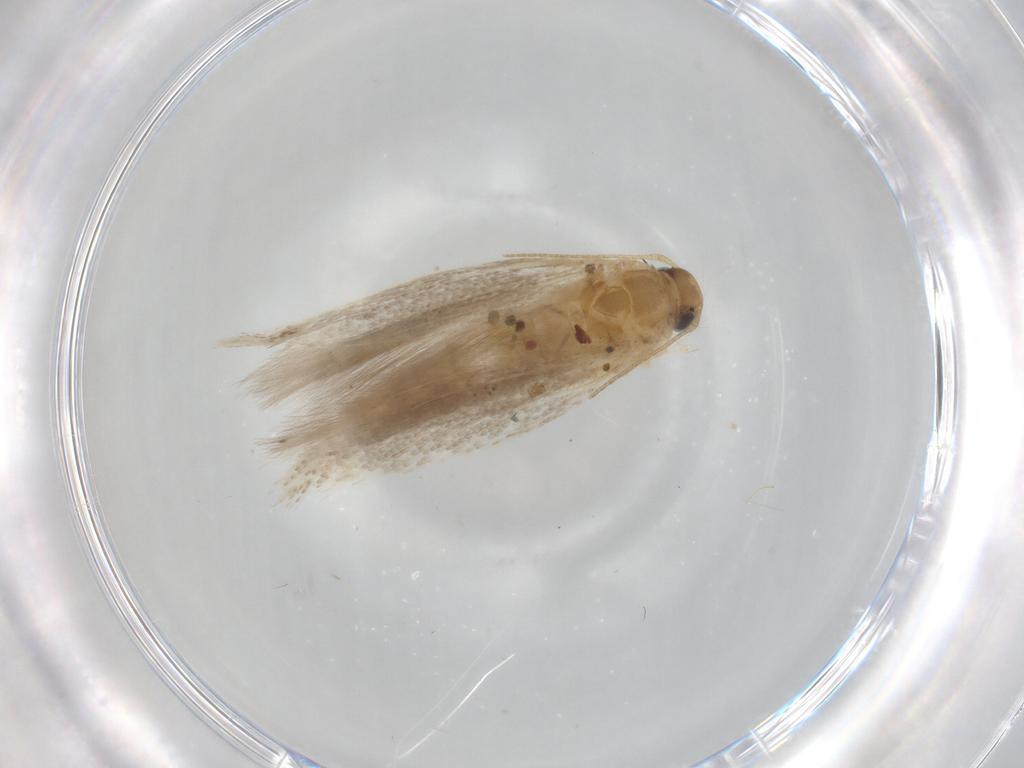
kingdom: Animalia
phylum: Arthropoda
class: Insecta
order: Lepidoptera
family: Gelechiidae
